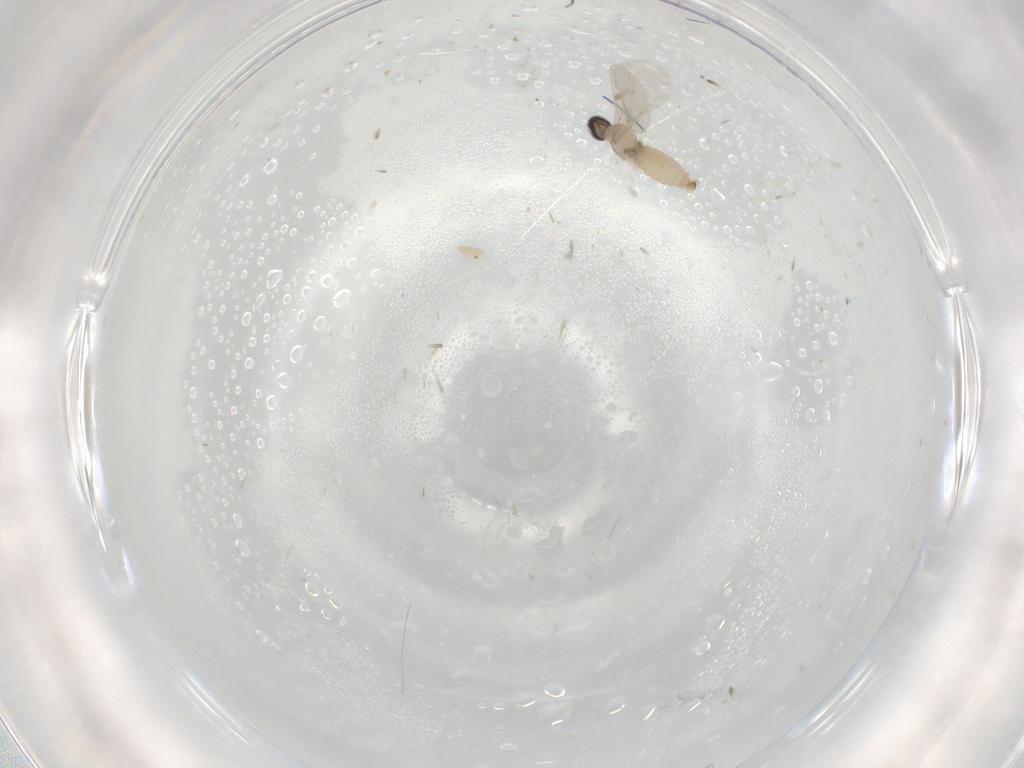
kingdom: Animalia
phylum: Arthropoda
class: Insecta
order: Diptera
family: Cecidomyiidae
